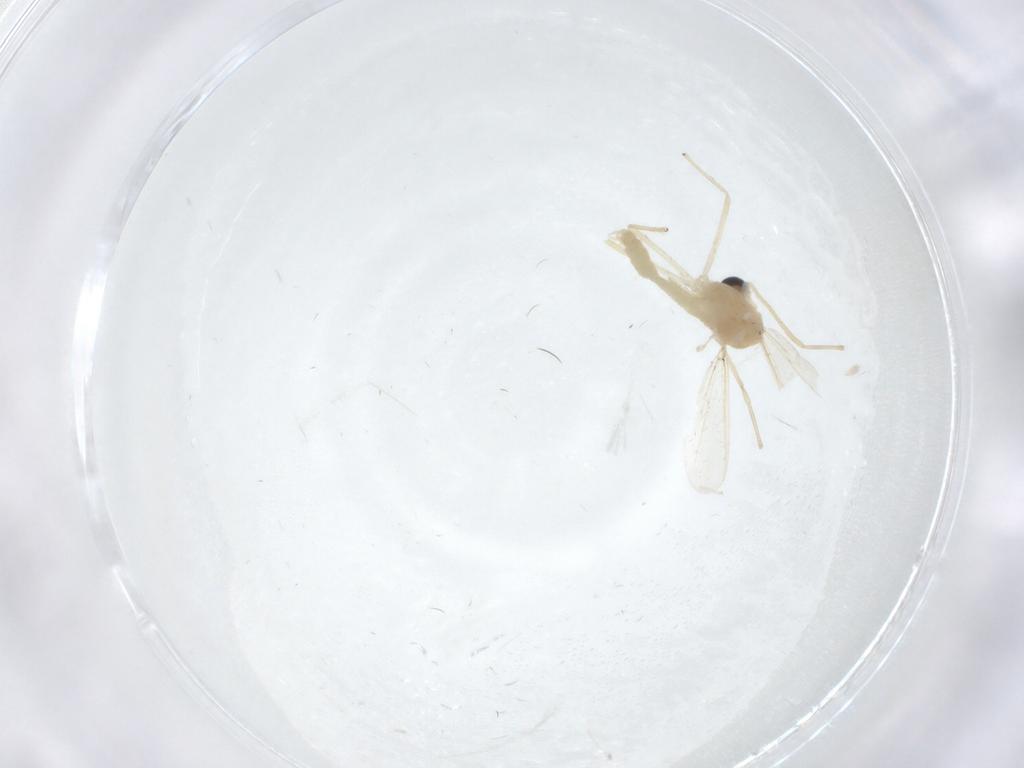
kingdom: Animalia
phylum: Arthropoda
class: Insecta
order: Diptera
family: Chironomidae
